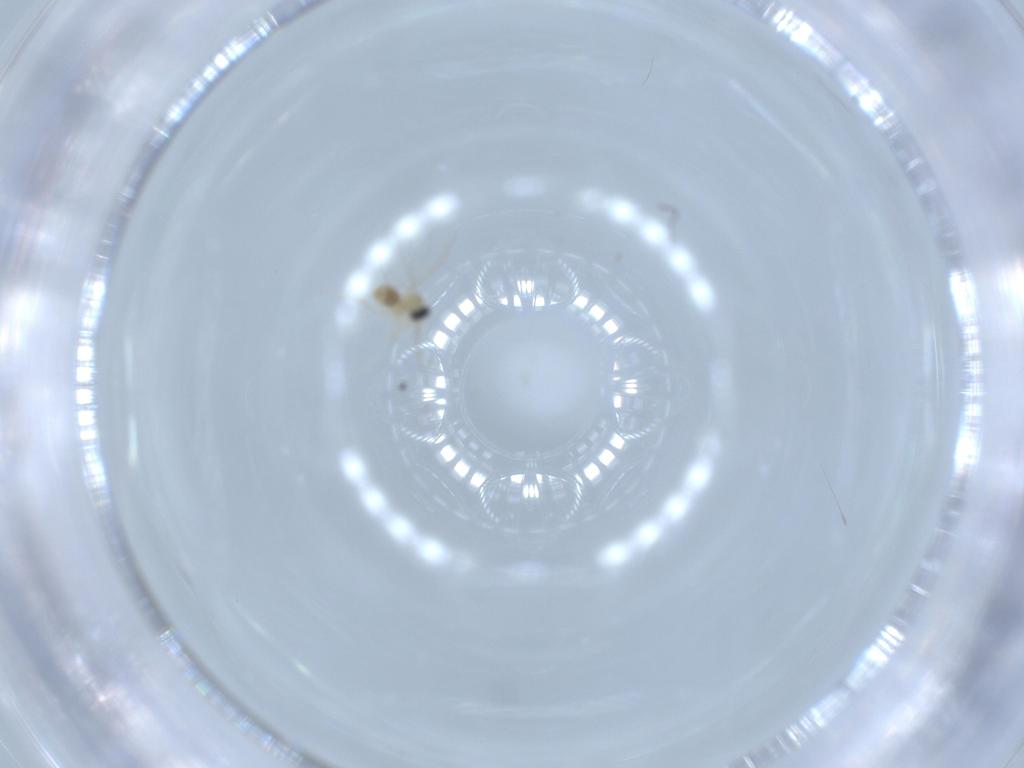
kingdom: Animalia
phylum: Arthropoda
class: Insecta
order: Diptera
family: Cecidomyiidae
